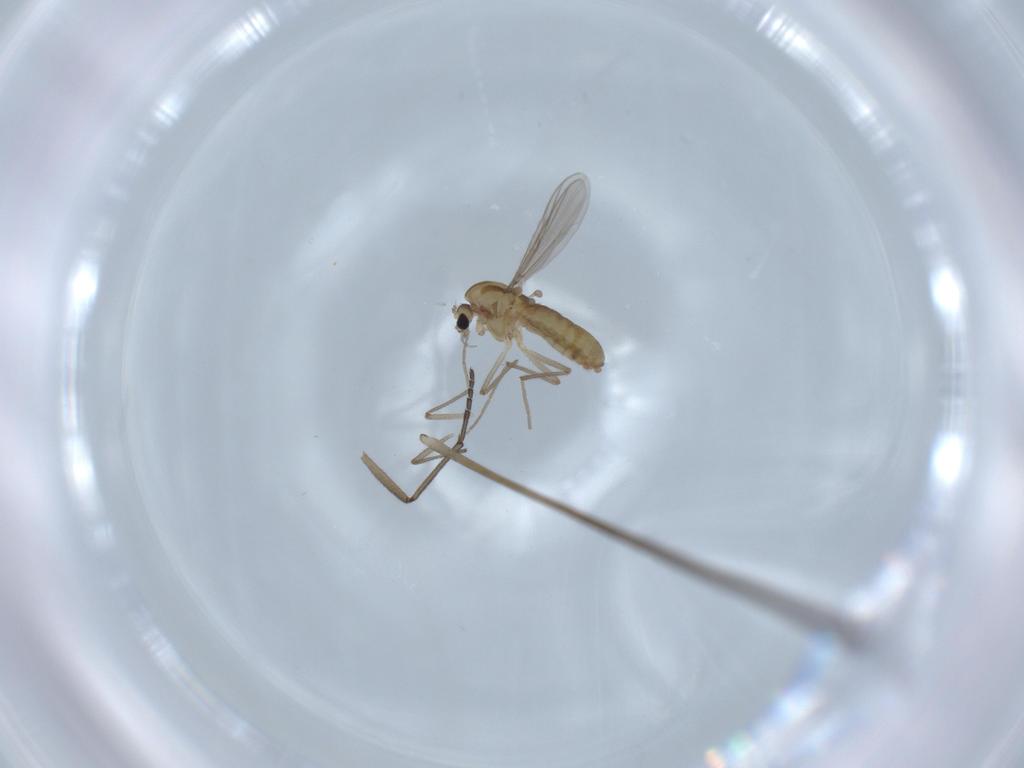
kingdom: Animalia
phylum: Arthropoda
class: Insecta
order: Diptera
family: Chironomidae
